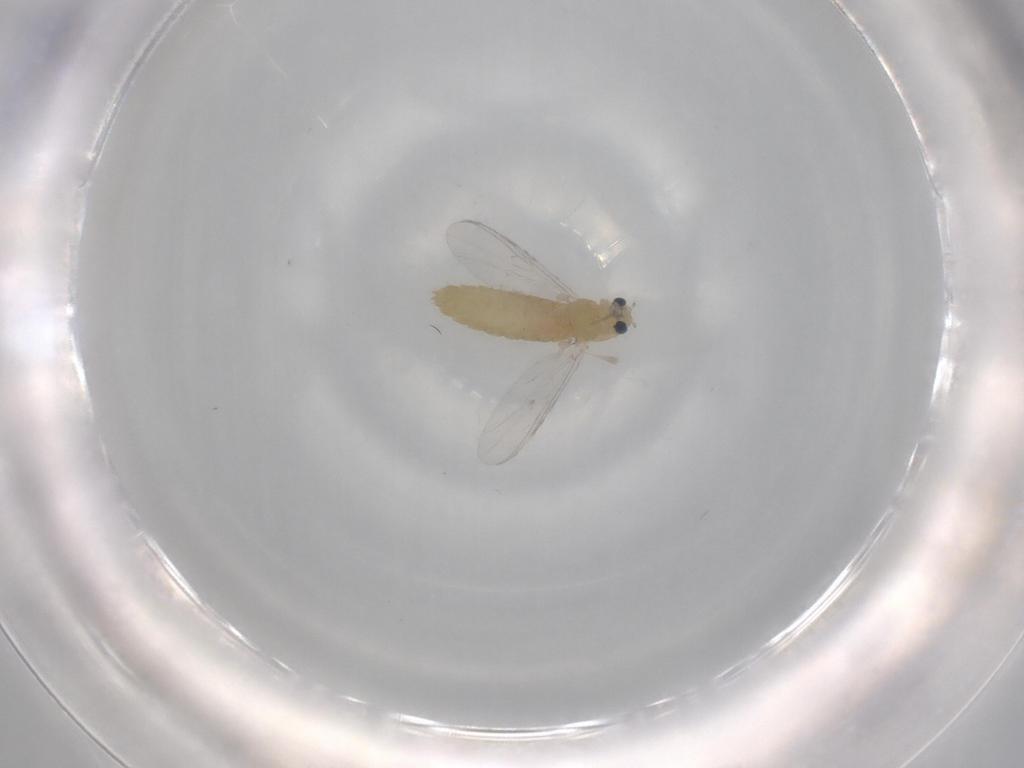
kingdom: Animalia
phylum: Arthropoda
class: Insecta
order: Diptera
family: Chironomidae
